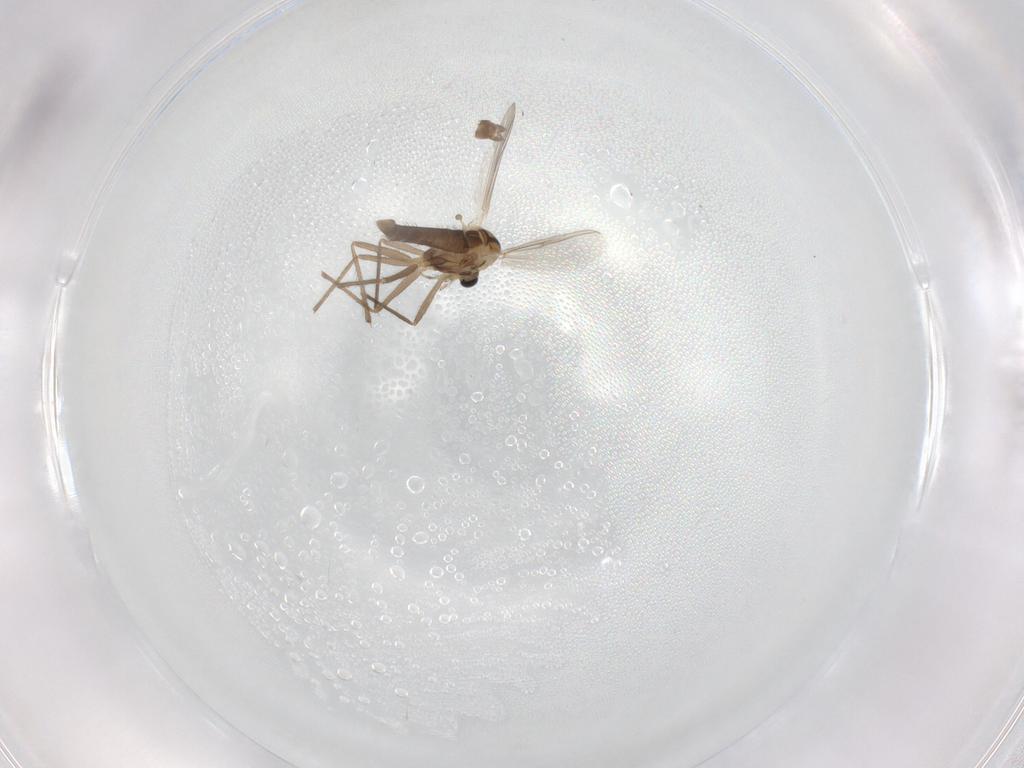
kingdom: Animalia
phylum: Arthropoda
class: Insecta
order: Diptera
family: Chironomidae
